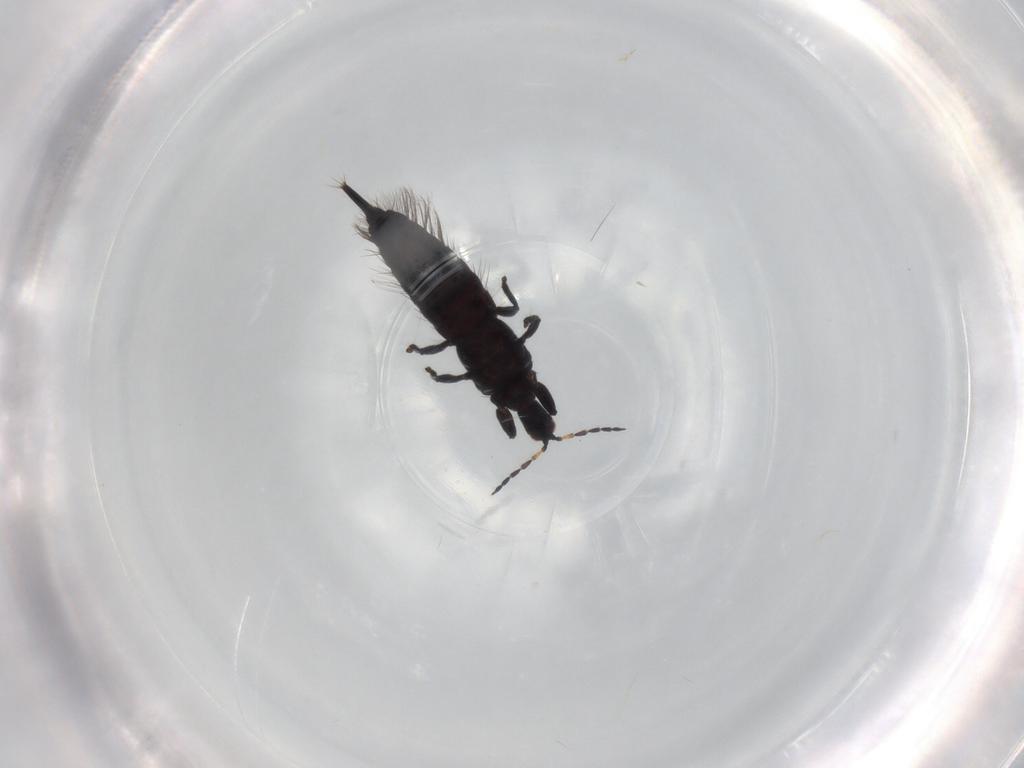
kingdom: Animalia
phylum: Arthropoda
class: Insecta
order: Thysanoptera
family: Phlaeothripidae
